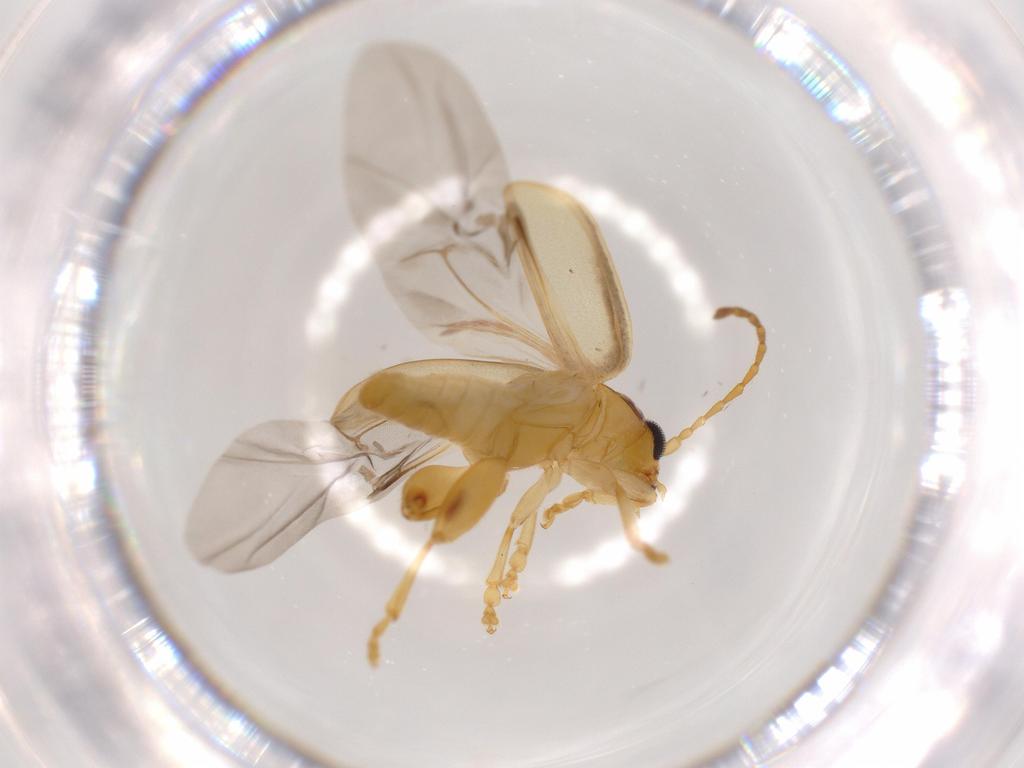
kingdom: Animalia
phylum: Arthropoda
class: Insecta
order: Coleoptera
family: Chrysomelidae
